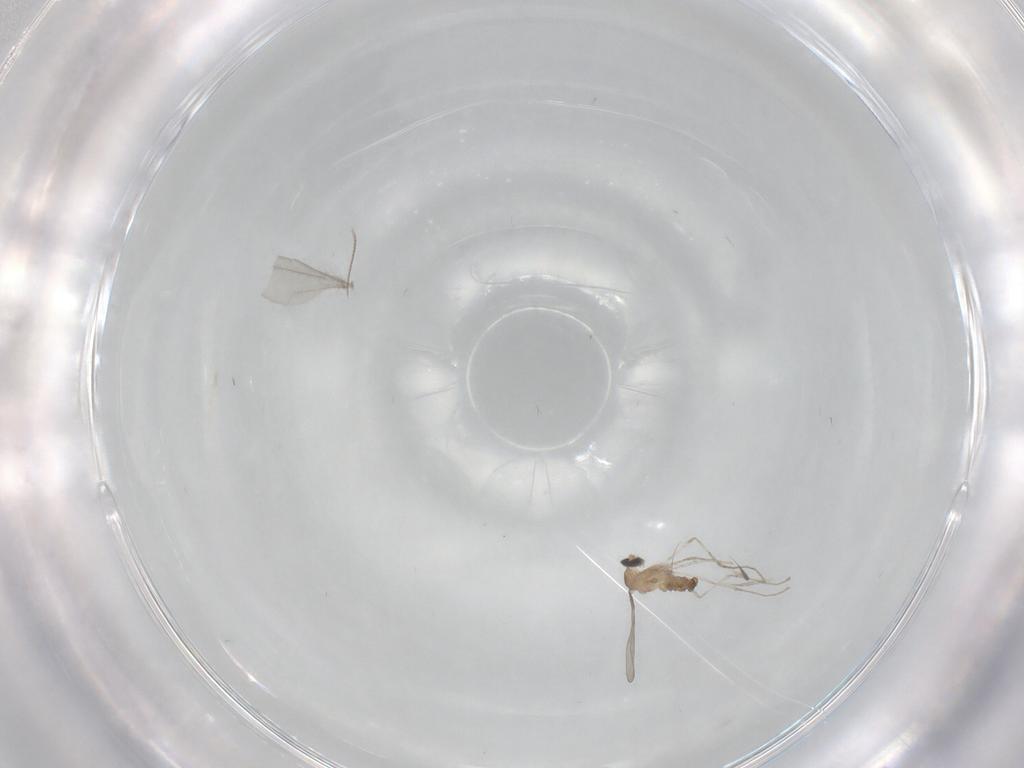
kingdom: Animalia
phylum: Arthropoda
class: Insecta
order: Diptera
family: Cecidomyiidae
